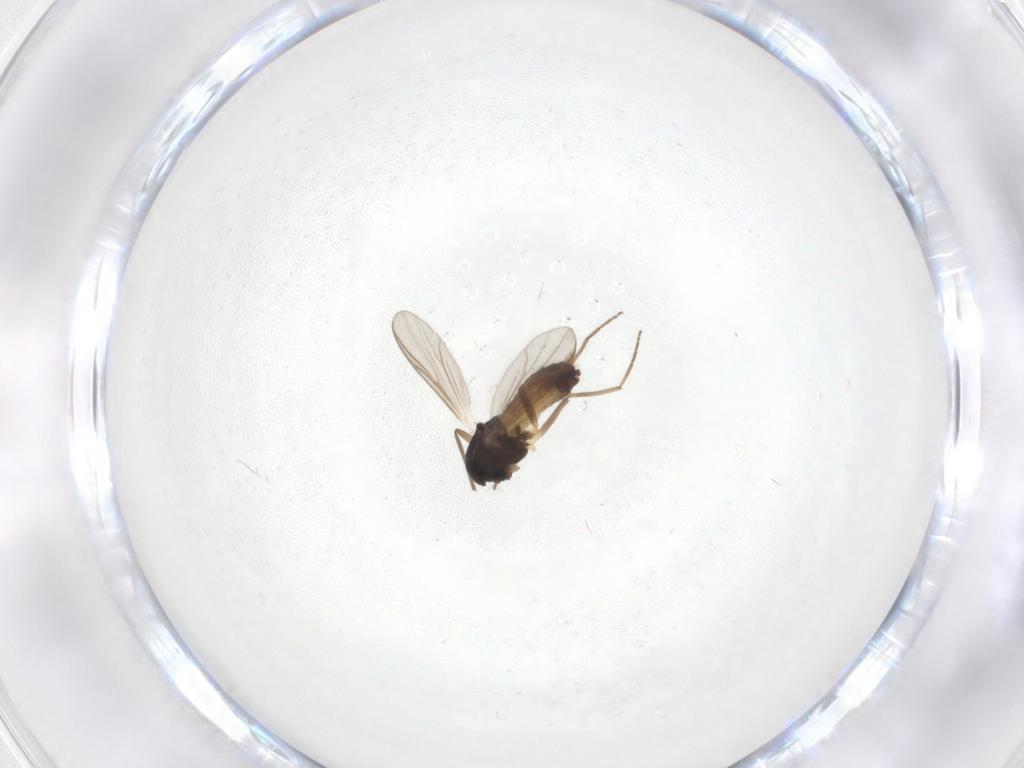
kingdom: Animalia
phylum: Arthropoda
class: Insecta
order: Diptera
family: Chironomidae
